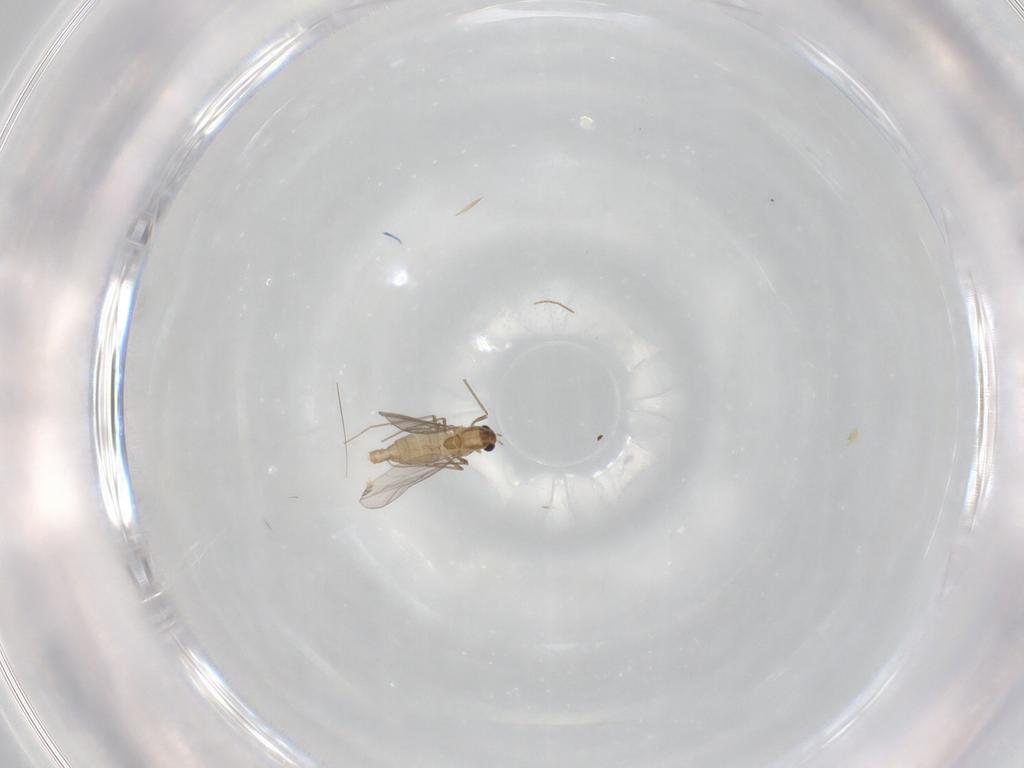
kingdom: Animalia
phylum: Arthropoda
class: Insecta
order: Diptera
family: Chironomidae
